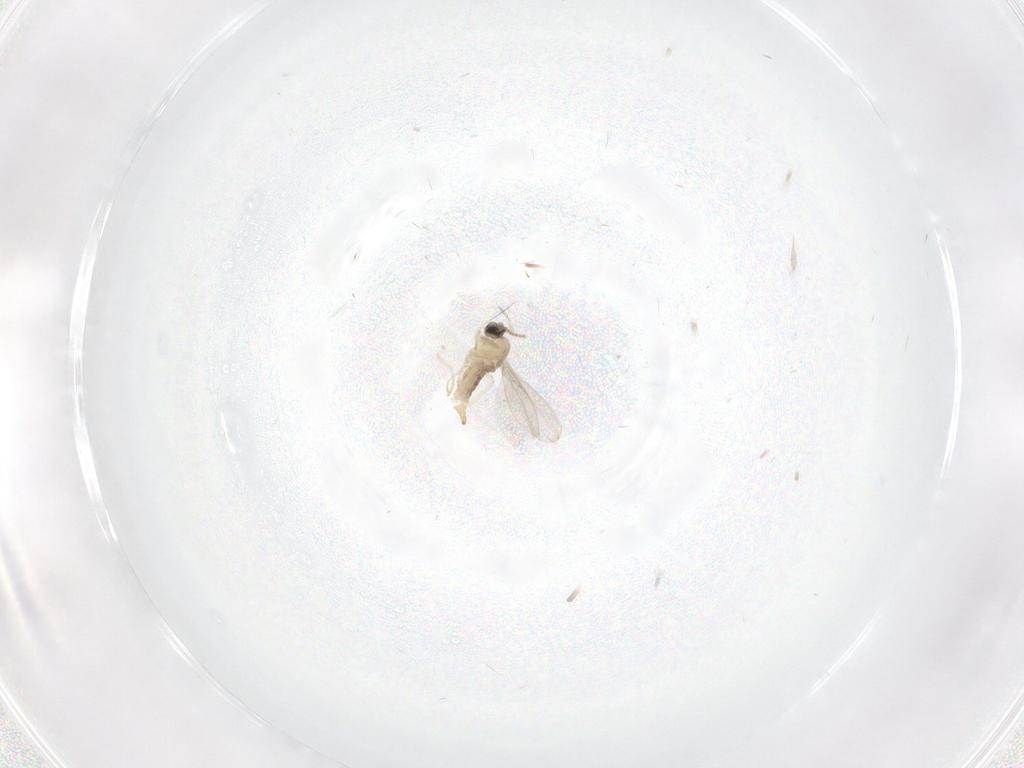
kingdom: Animalia
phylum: Arthropoda
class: Insecta
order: Diptera
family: Cecidomyiidae
